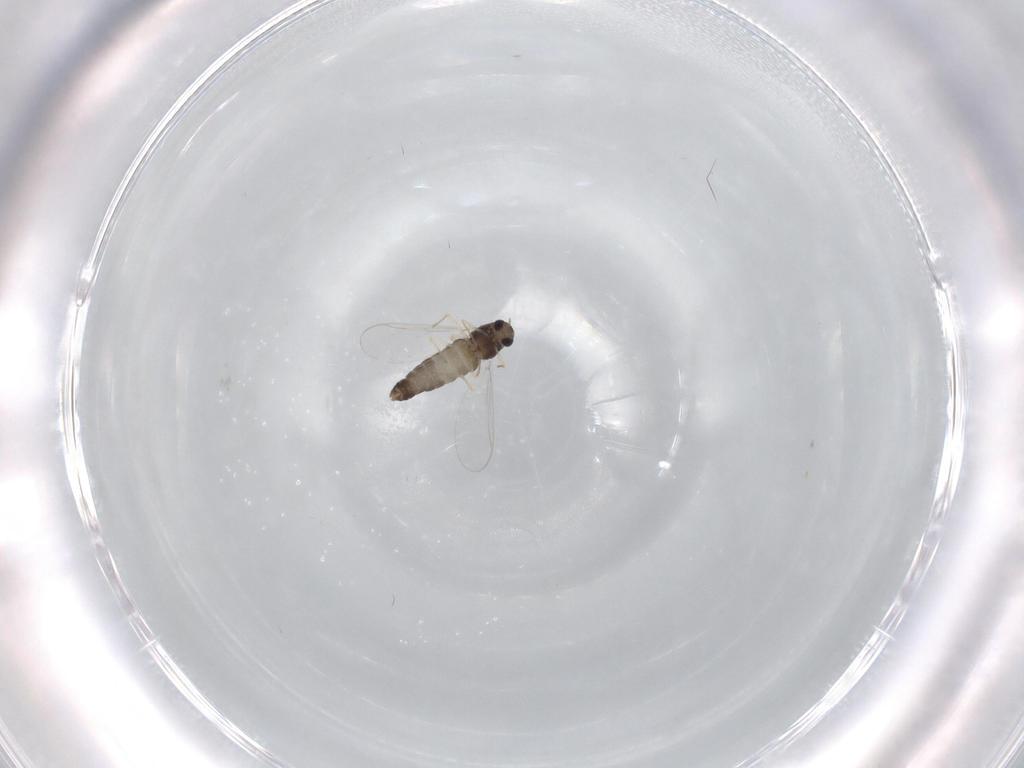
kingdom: Animalia
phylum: Arthropoda
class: Insecta
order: Diptera
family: Chironomidae
